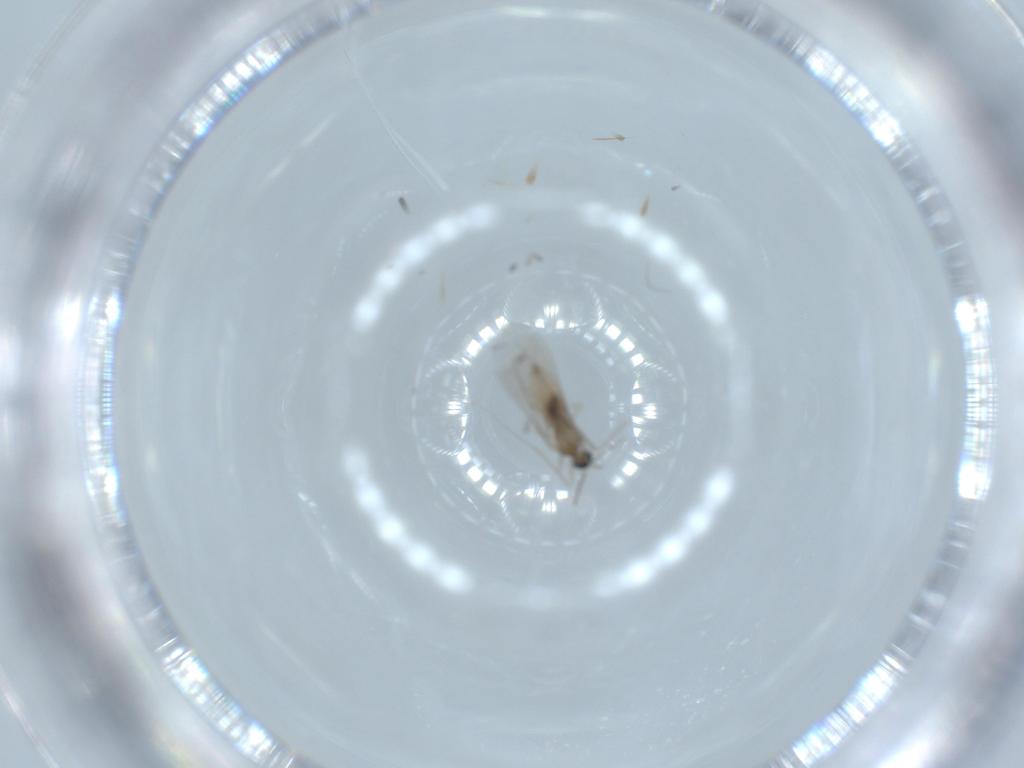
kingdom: Animalia
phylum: Arthropoda
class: Insecta
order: Diptera
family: Cecidomyiidae
